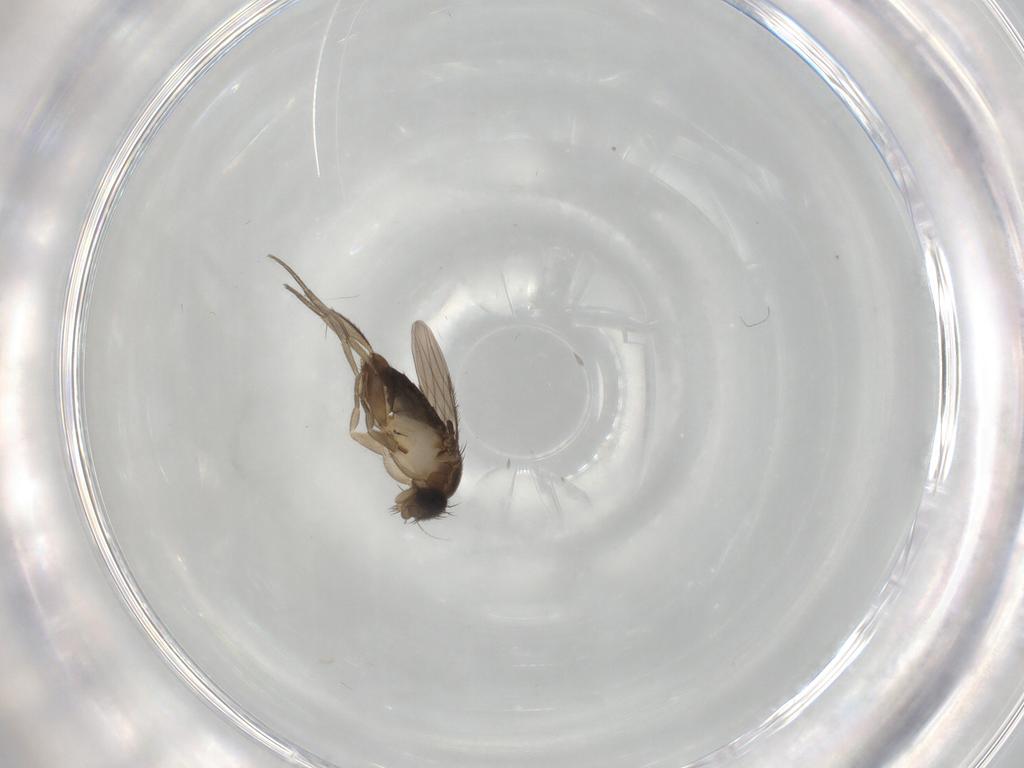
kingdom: Animalia
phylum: Arthropoda
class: Insecta
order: Diptera
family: Phoridae
